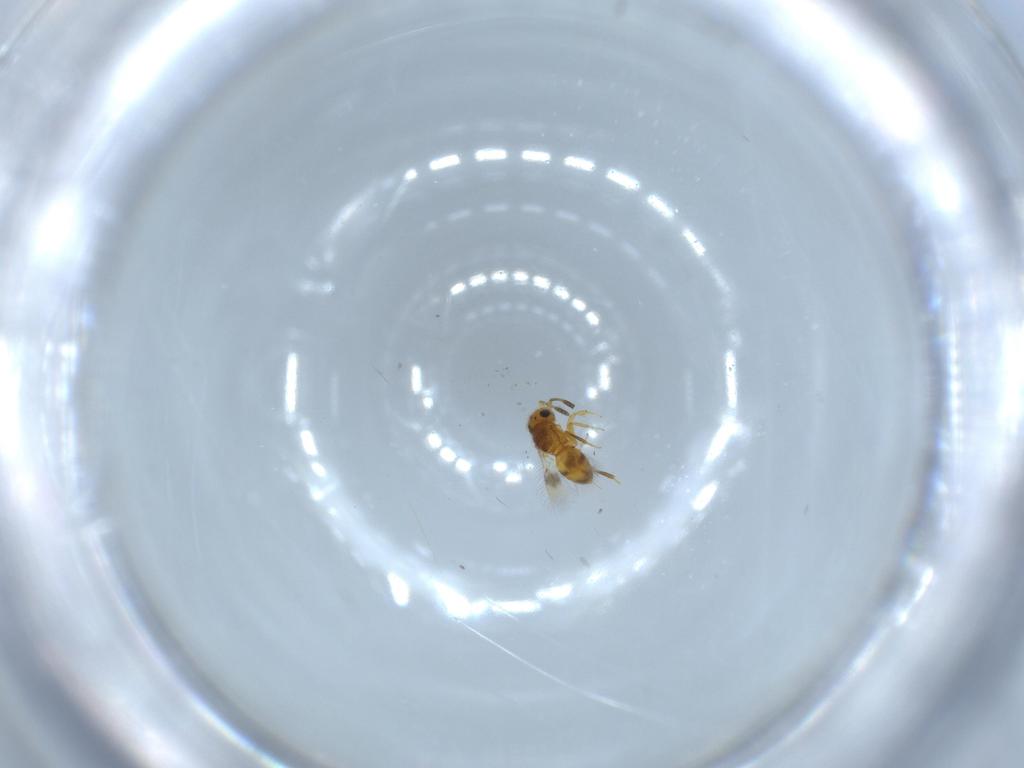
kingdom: Animalia
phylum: Arthropoda
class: Insecta
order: Hymenoptera
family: Scelionidae
